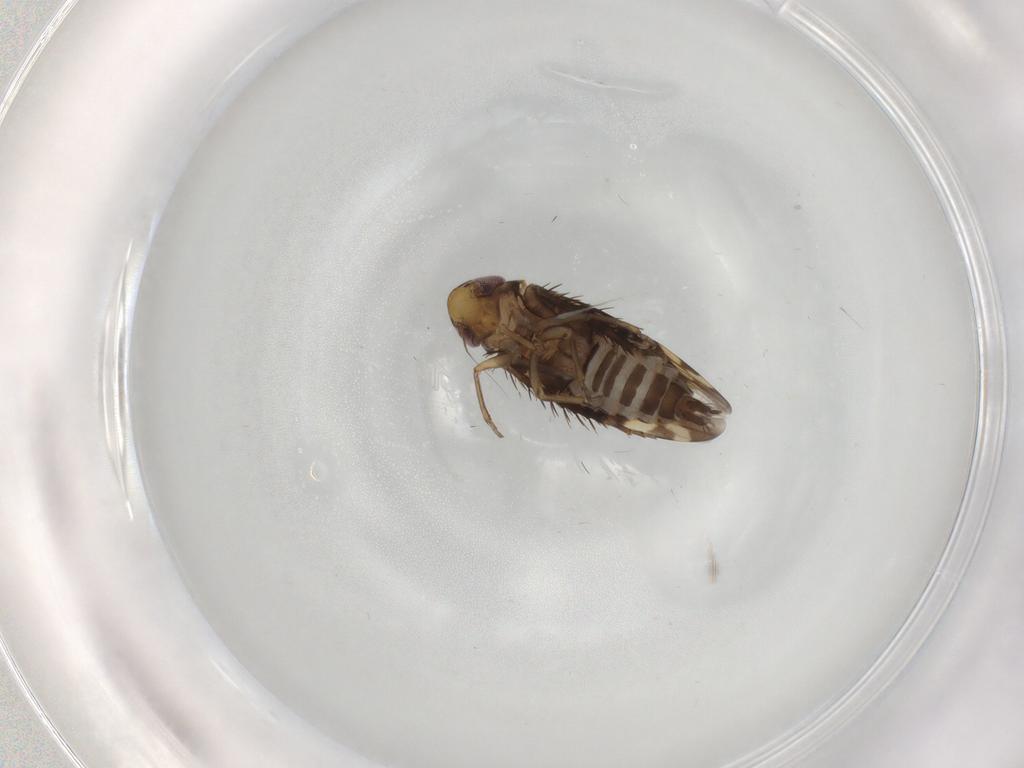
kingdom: Animalia
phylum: Arthropoda
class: Insecta
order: Hemiptera
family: Cicadellidae
